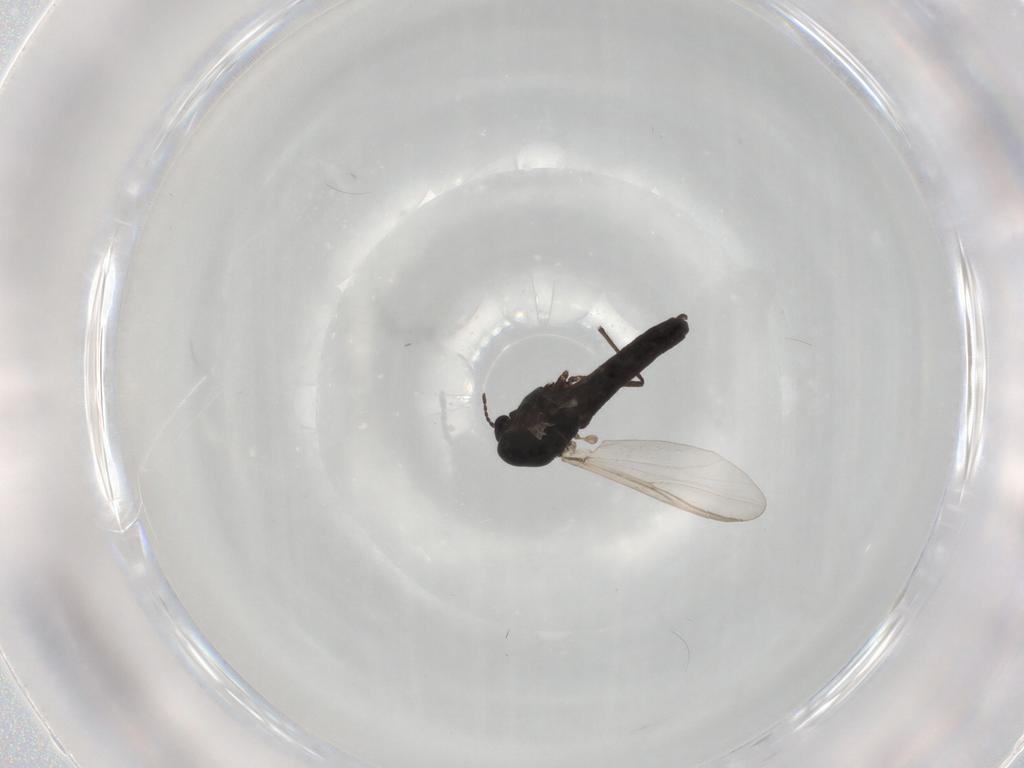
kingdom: Animalia
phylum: Arthropoda
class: Insecta
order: Diptera
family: Chironomidae
